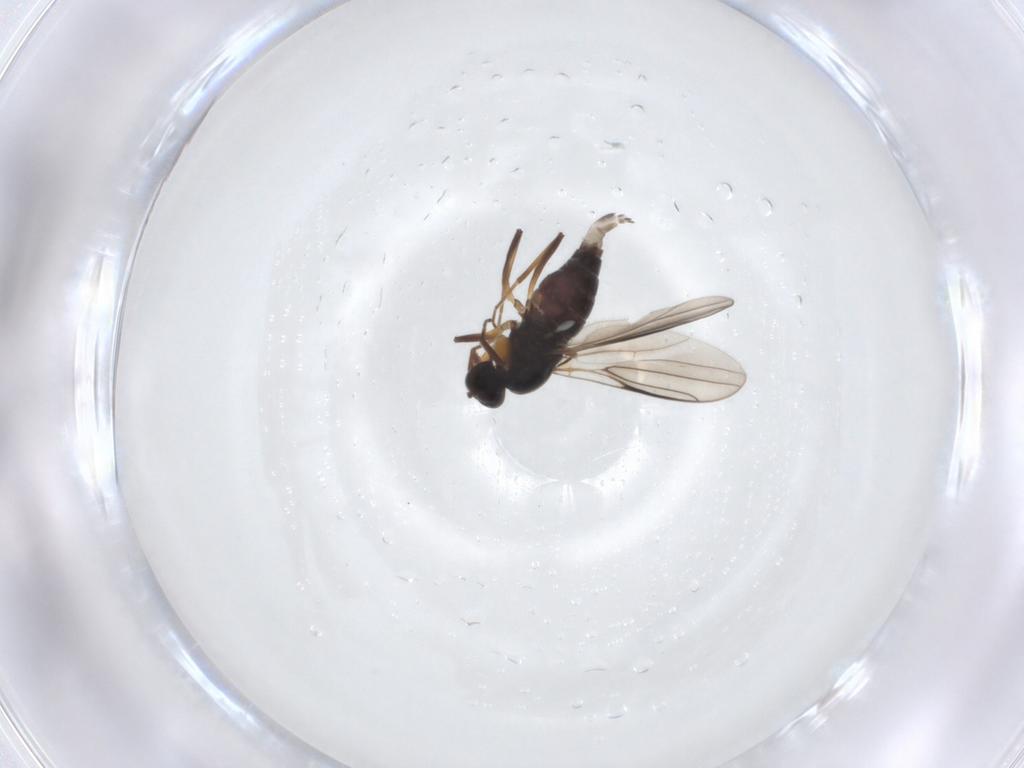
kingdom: Animalia
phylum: Arthropoda
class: Insecta
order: Diptera
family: Hybotidae
